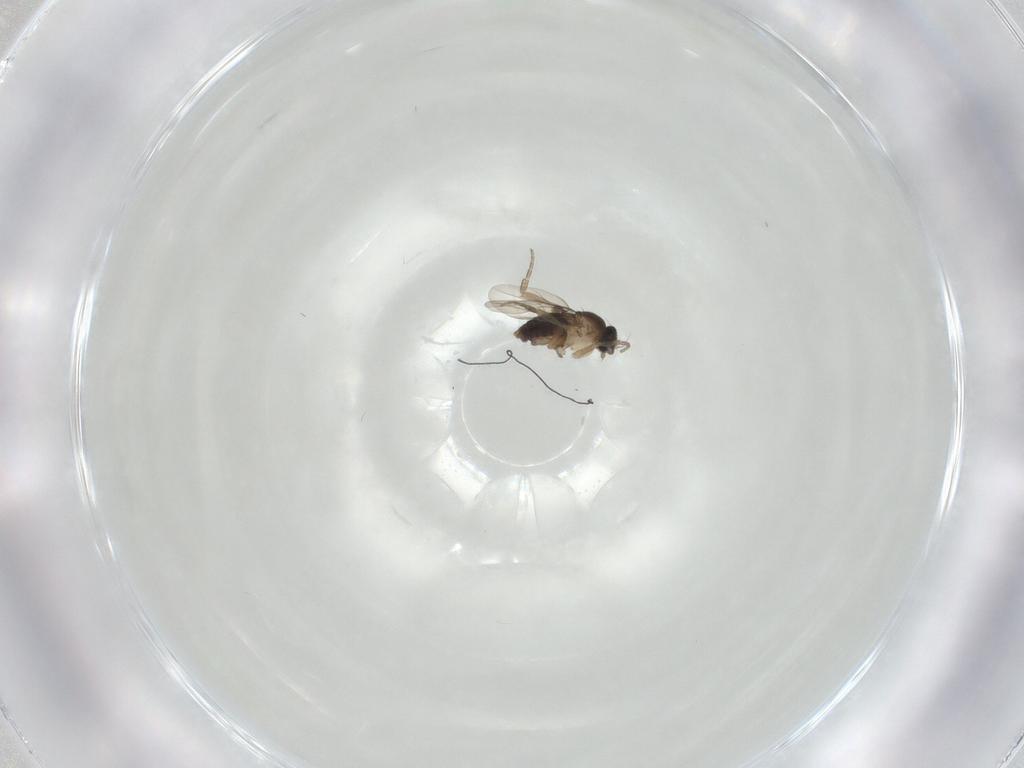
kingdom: Animalia
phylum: Arthropoda
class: Insecta
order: Diptera
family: Phoridae
